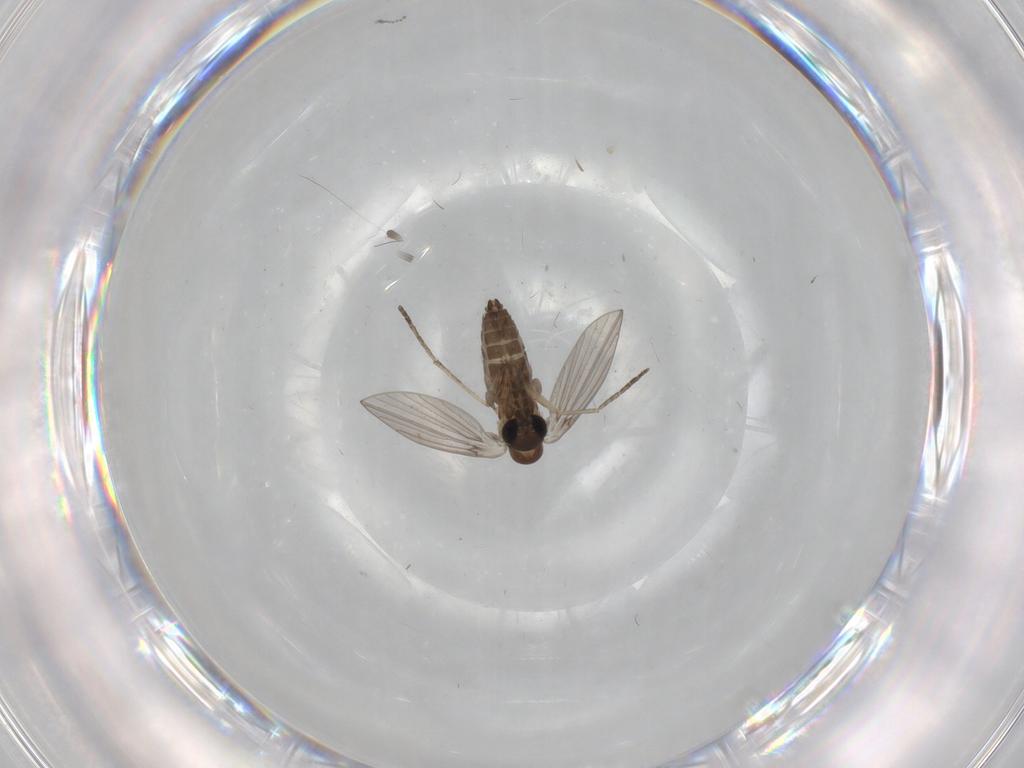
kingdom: Animalia
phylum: Arthropoda
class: Insecta
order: Diptera
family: Cecidomyiidae
